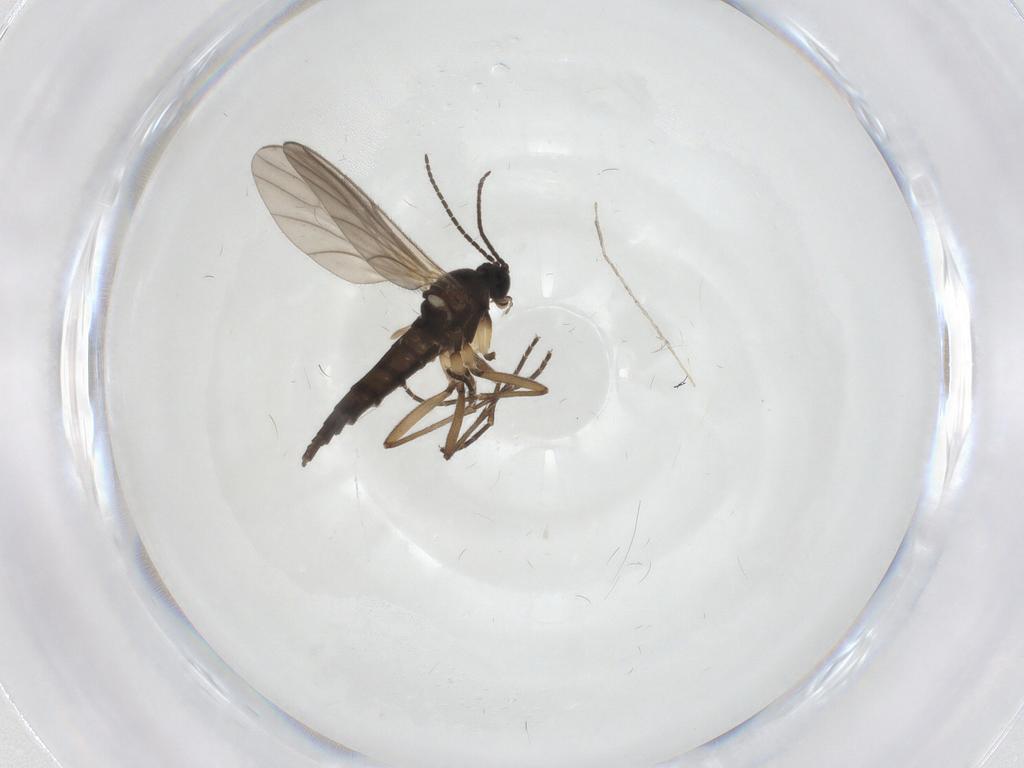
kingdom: Animalia
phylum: Arthropoda
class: Insecta
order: Diptera
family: Sciaridae
